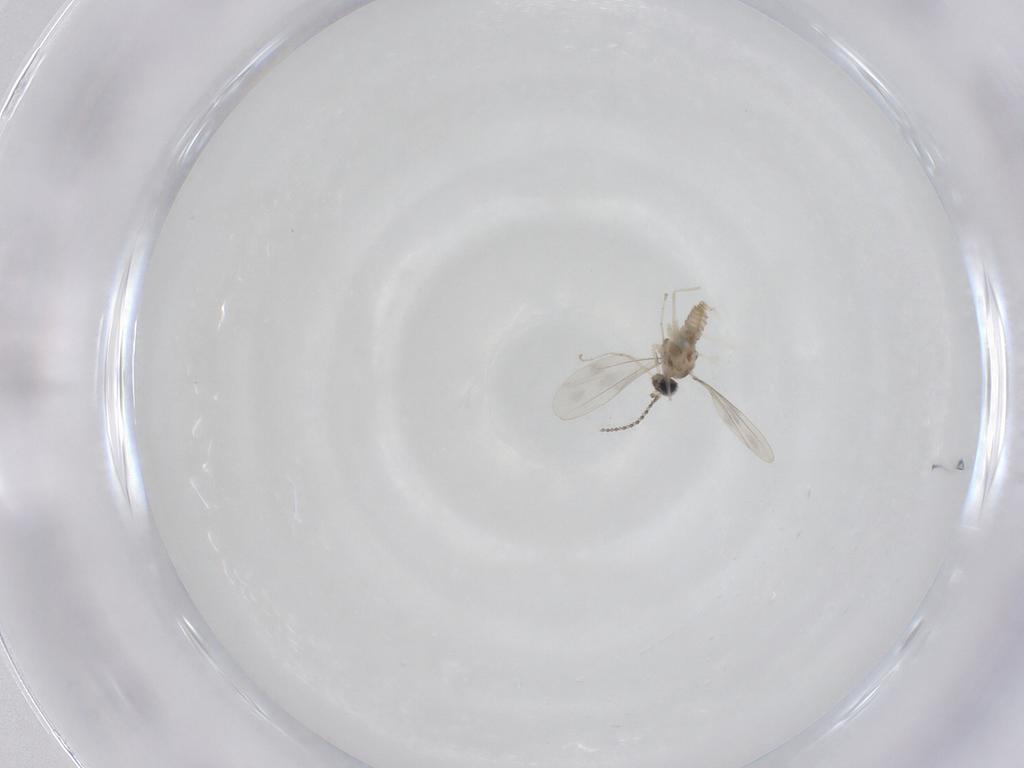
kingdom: Animalia
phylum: Arthropoda
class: Insecta
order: Diptera
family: Cecidomyiidae
